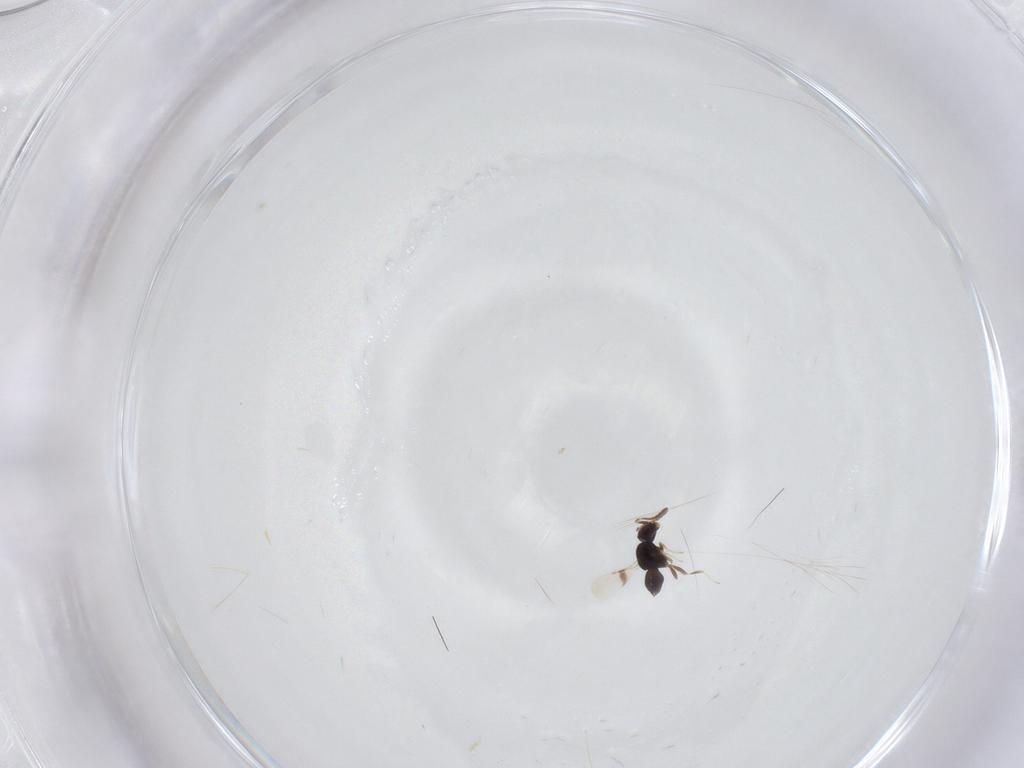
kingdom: Animalia
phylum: Arthropoda
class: Insecta
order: Hymenoptera
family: Trichogrammatidae
